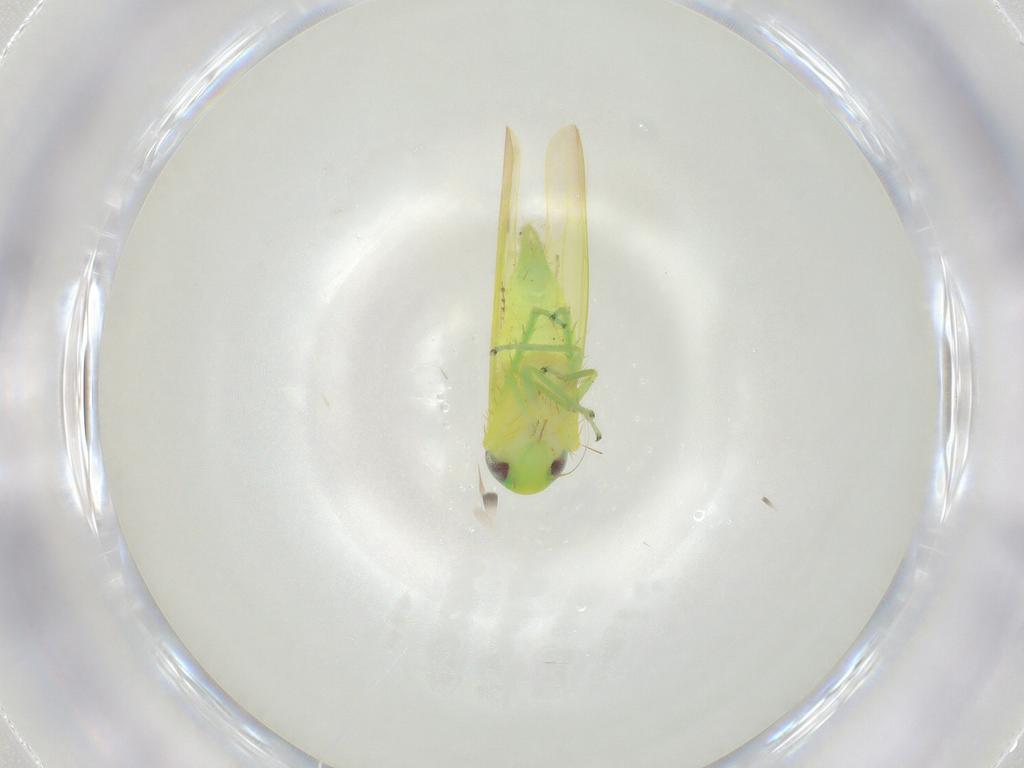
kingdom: Animalia
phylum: Arthropoda
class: Insecta
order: Hemiptera
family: Cicadellidae
